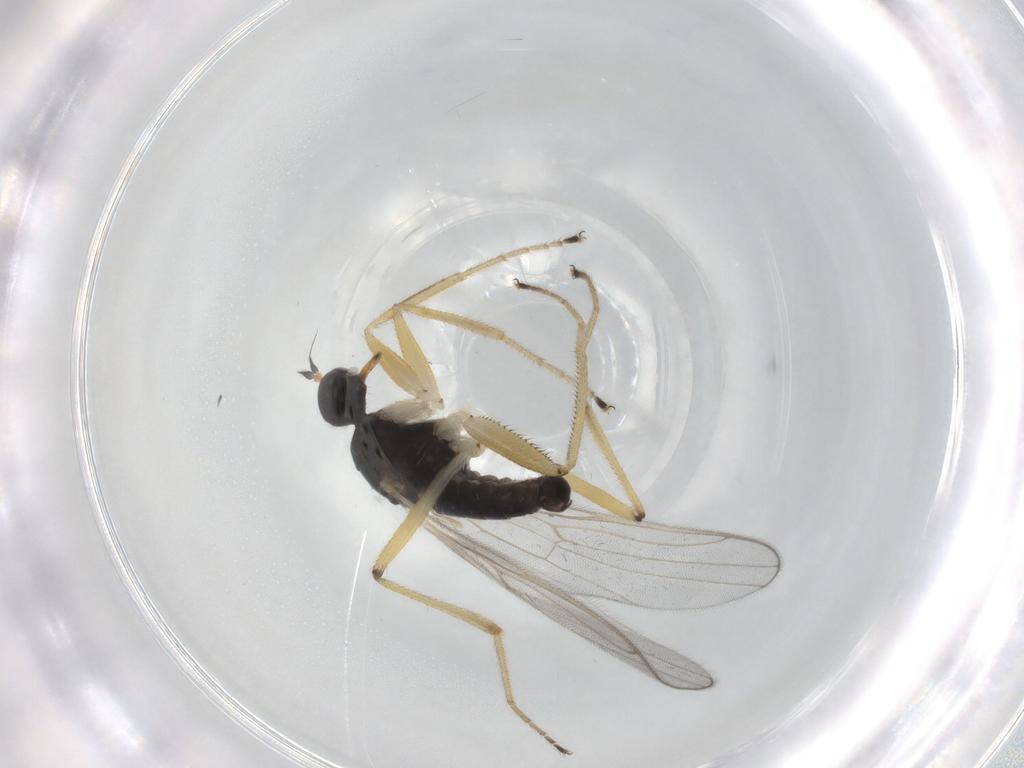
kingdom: Animalia
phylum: Arthropoda
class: Insecta
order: Diptera
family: Hybotidae
